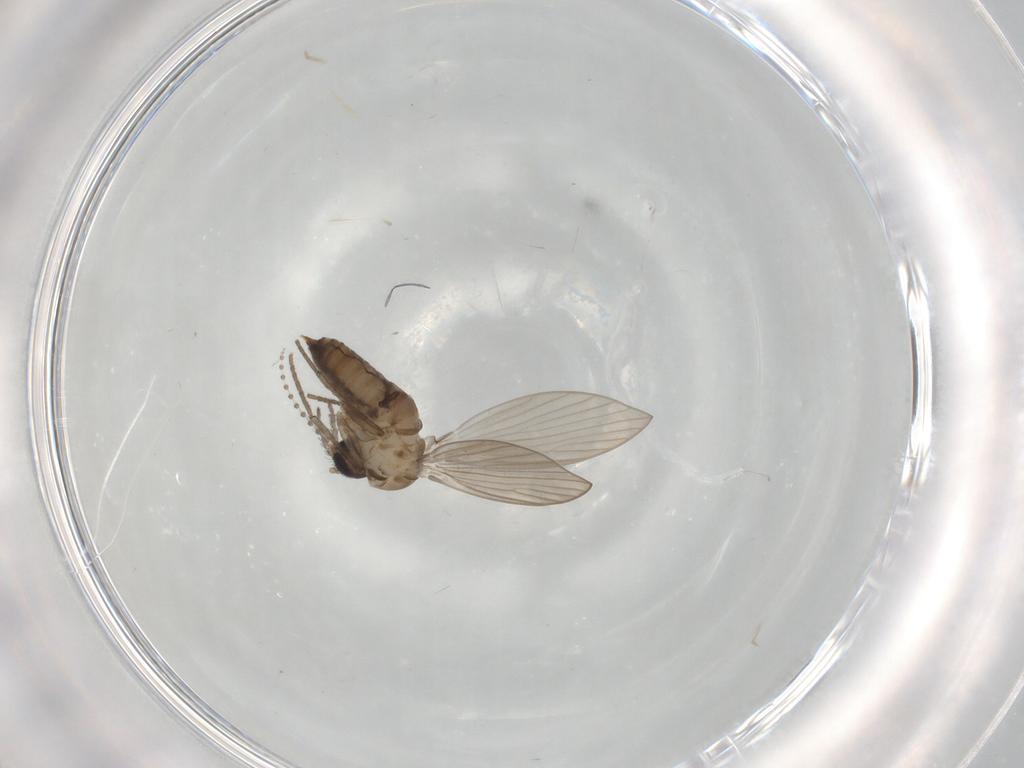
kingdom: Animalia
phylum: Arthropoda
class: Insecta
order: Diptera
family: Psychodidae
